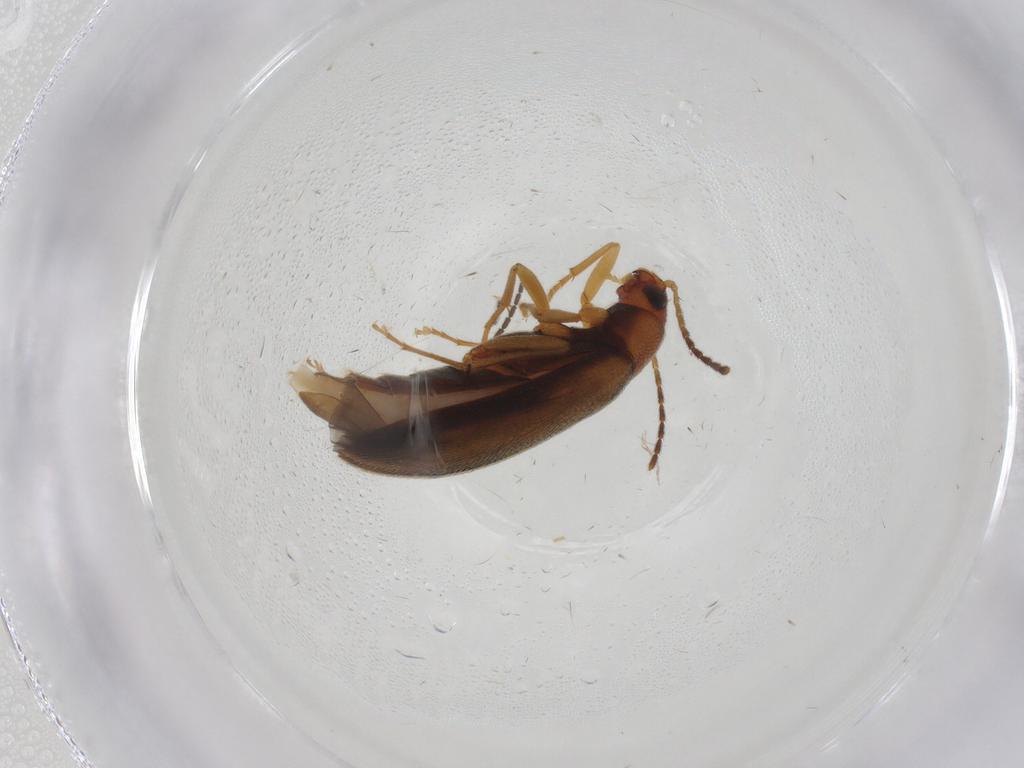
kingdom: Animalia
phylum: Arthropoda
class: Insecta
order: Coleoptera
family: Melandryidae
